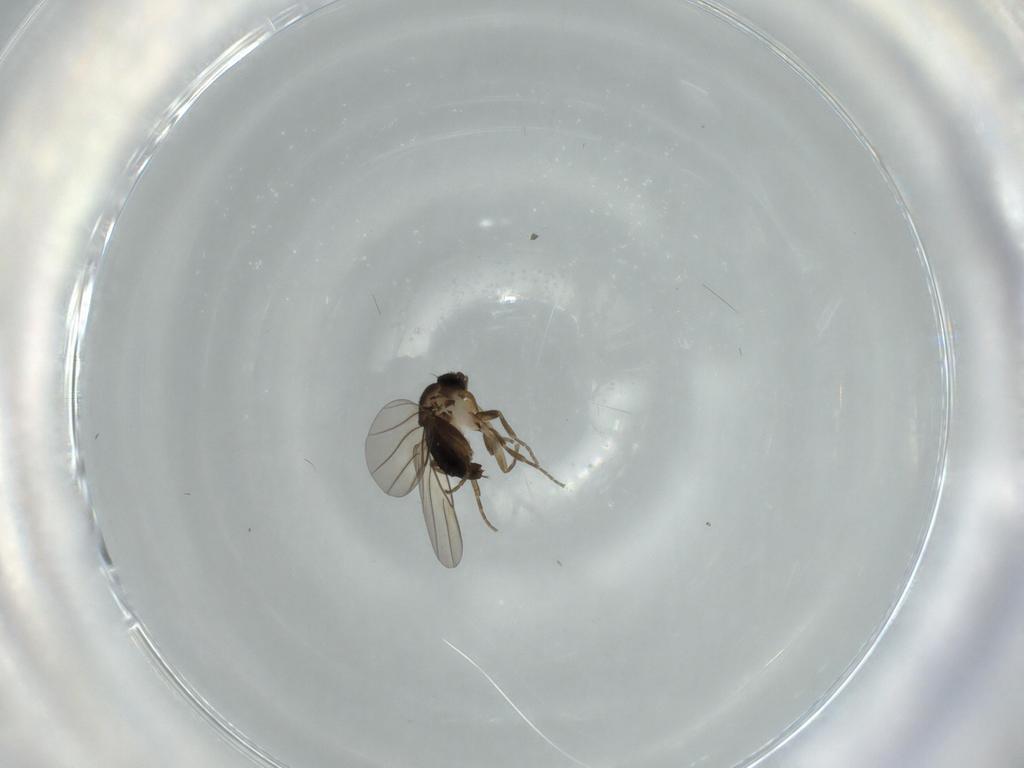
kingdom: Animalia
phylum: Arthropoda
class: Insecta
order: Diptera
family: Phoridae
